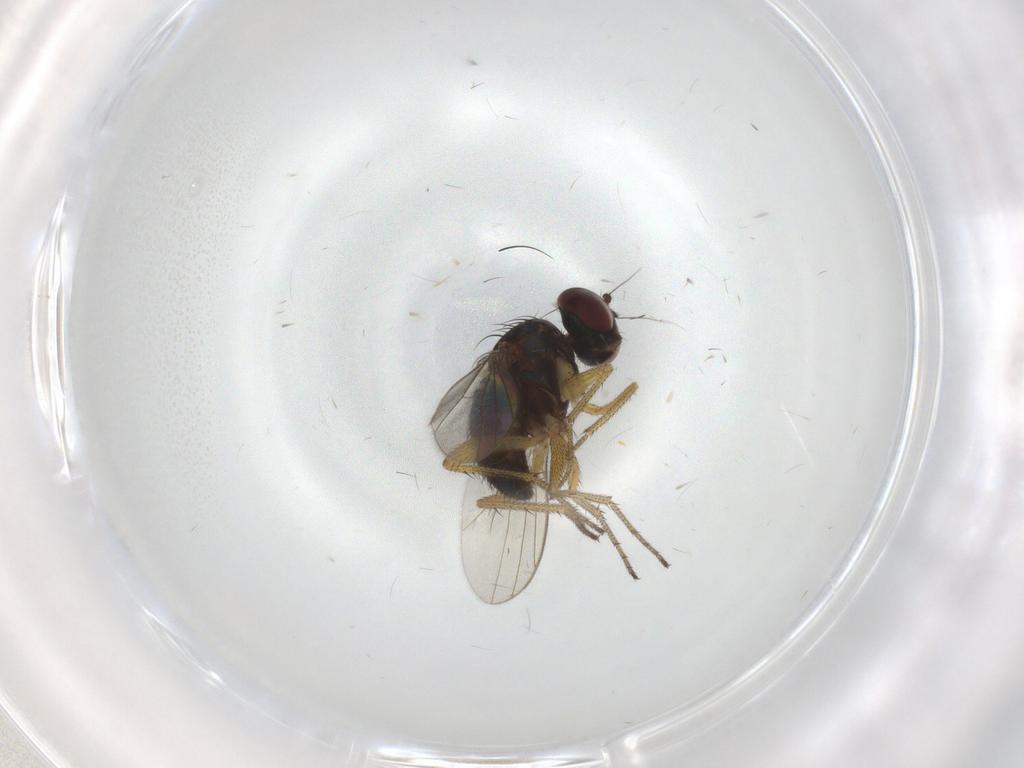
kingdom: Animalia
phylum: Arthropoda
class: Insecta
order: Diptera
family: Dolichopodidae
